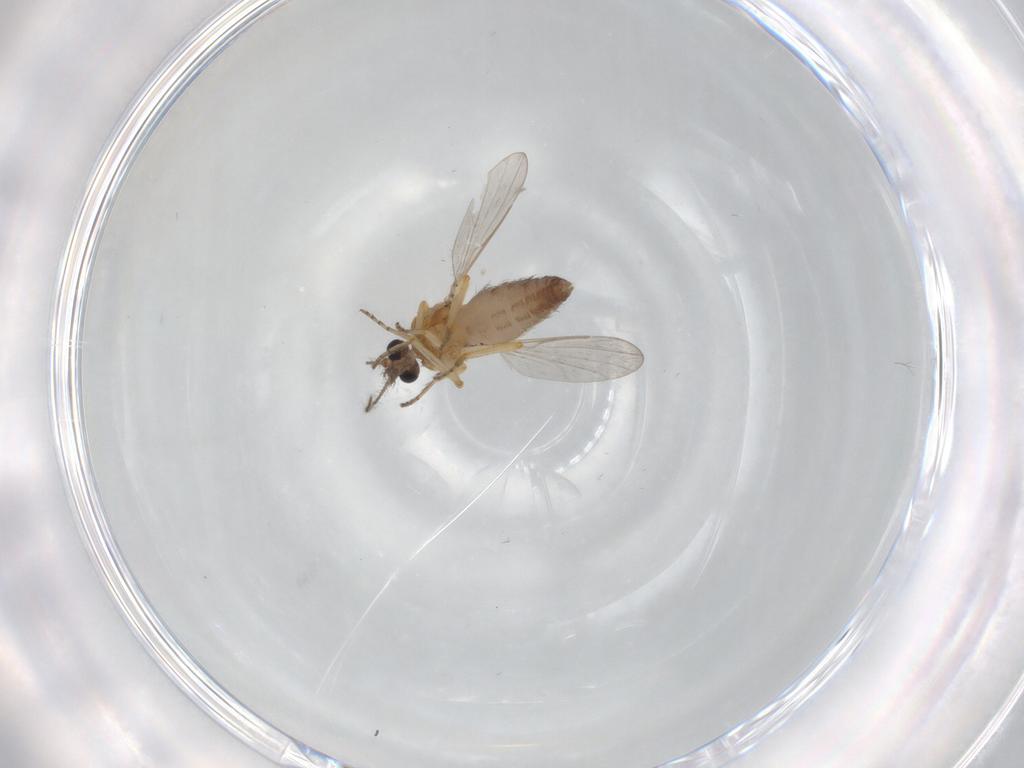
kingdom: Animalia
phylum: Arthropoda
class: Insecta
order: Diptera
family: Ceratopogonidae
